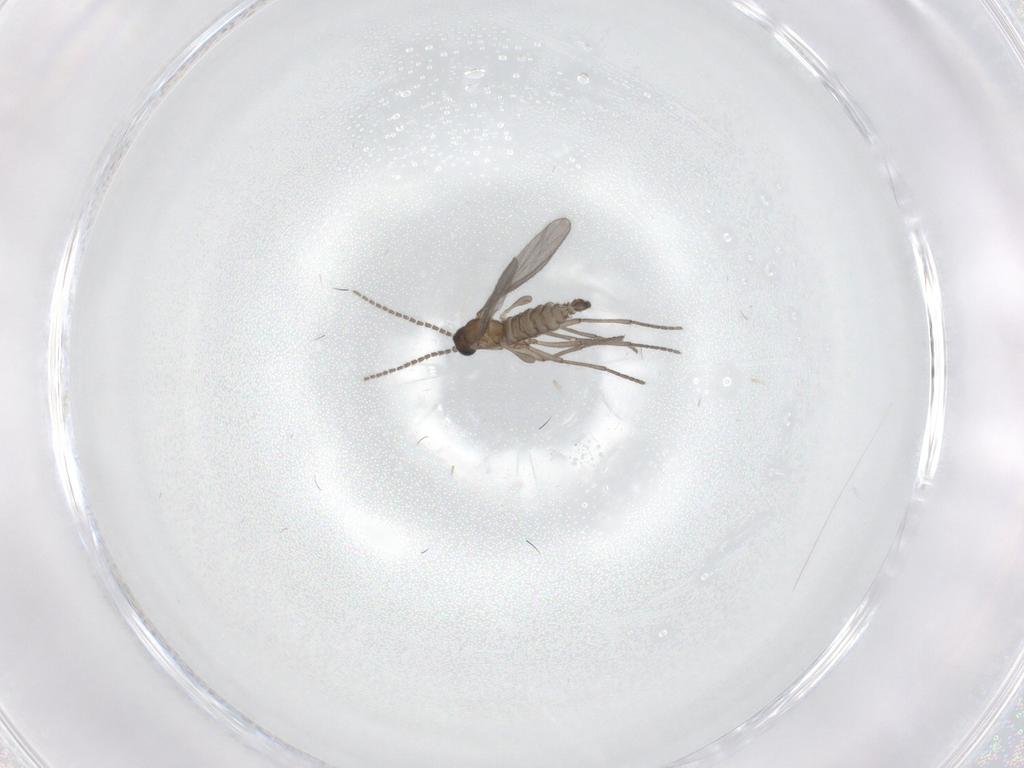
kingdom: Animalia
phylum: Arthropoda
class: Insecta
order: Diptera
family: Sciaridae
